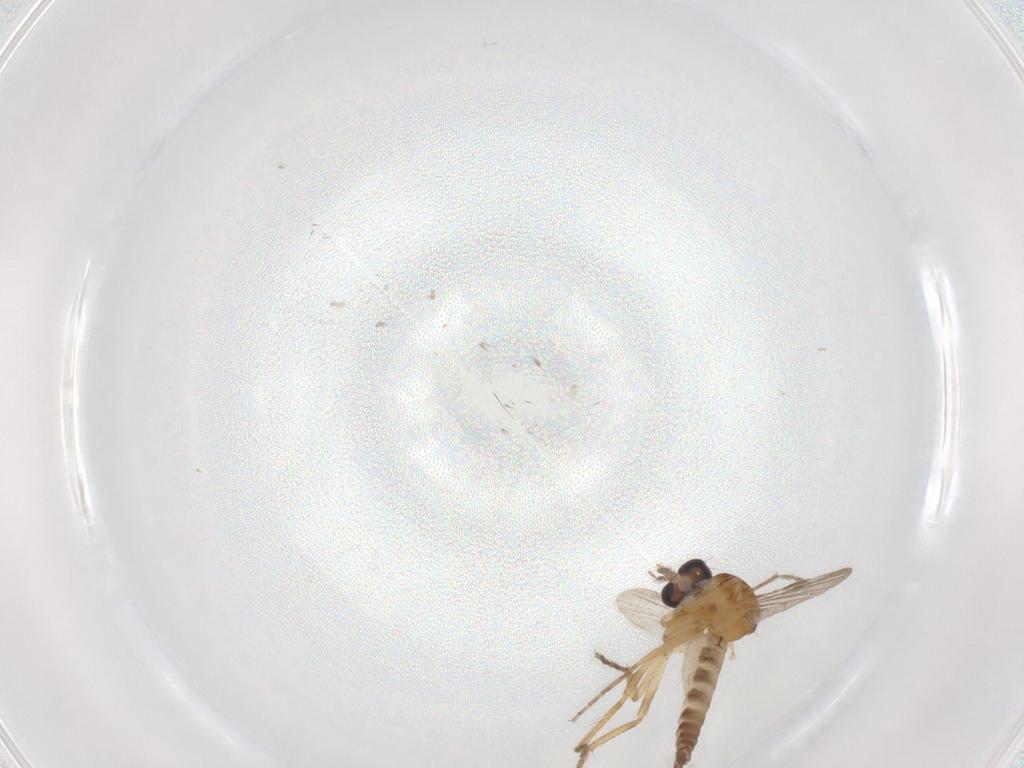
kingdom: Animalia
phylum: Arthropoda
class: Insecta
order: Diptera
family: Ceratopogonidae
